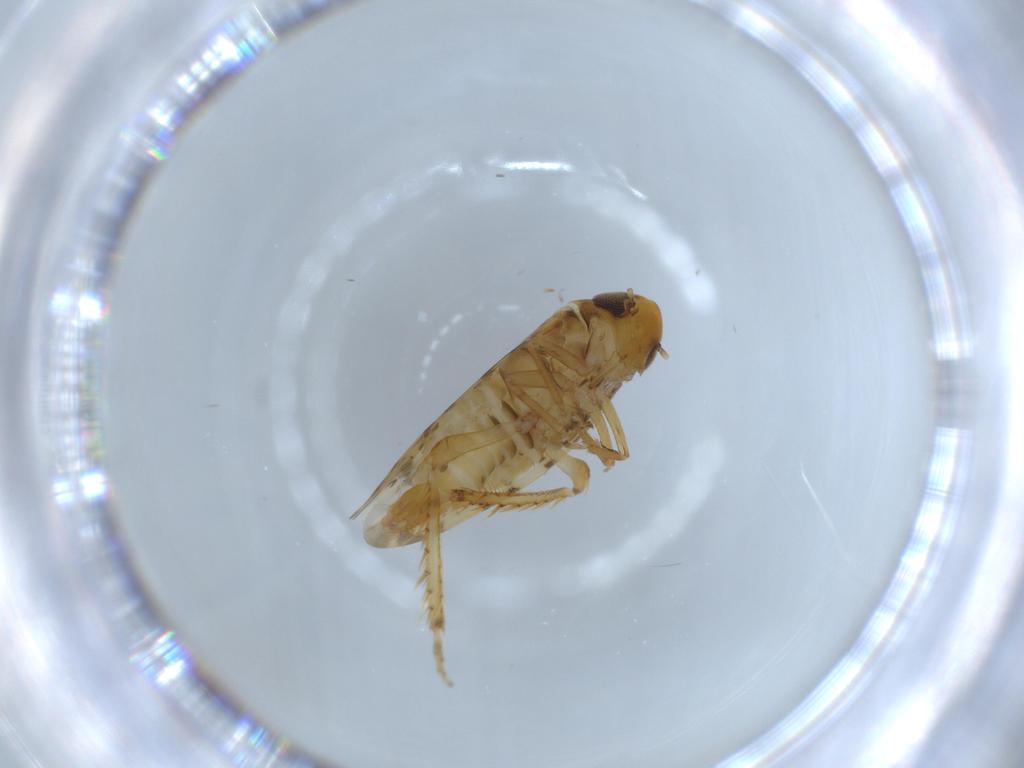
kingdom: Animalia
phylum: Arthropoda
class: Insecta
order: Hemiptera
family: Cicadellidae
